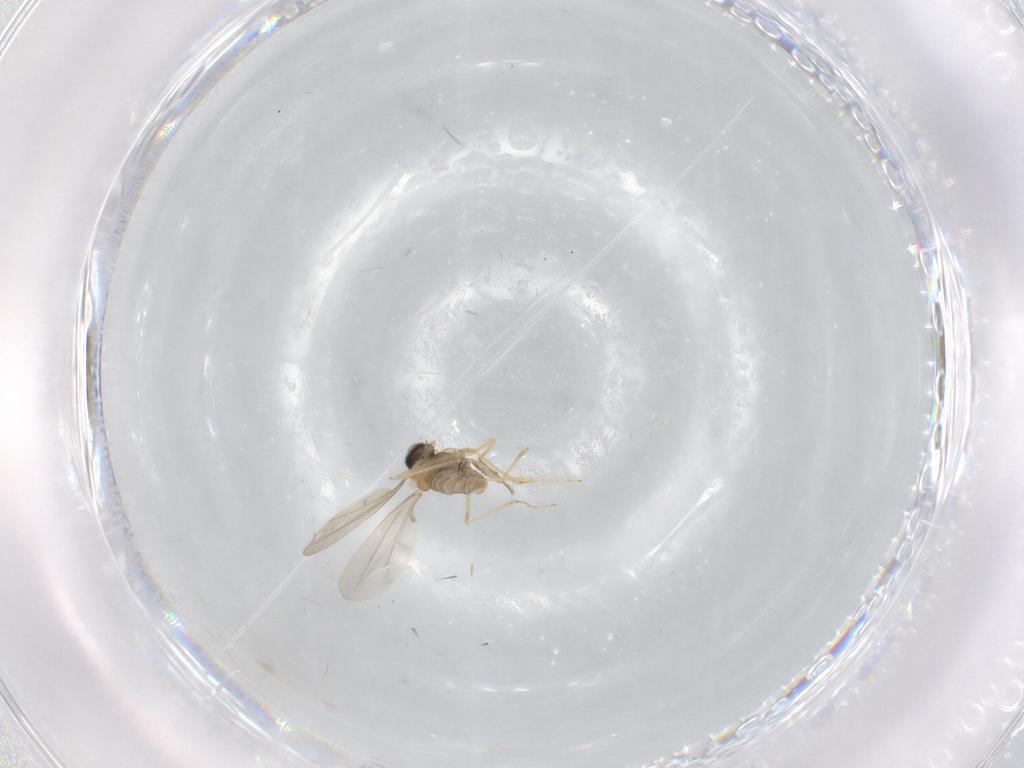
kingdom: Animalia
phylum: Arthropoda
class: Insecta
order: Diptera
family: Cecidomyiidae
